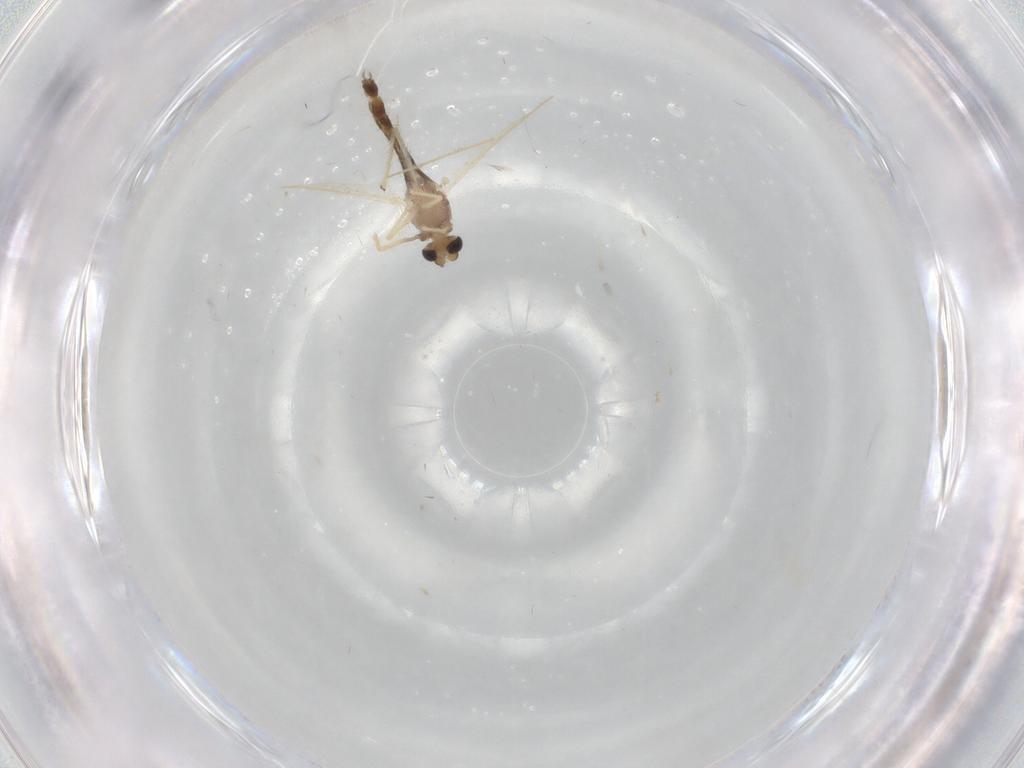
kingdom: Animalia
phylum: Arthropoda
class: Insecta
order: Diptera
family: Chironomidae
